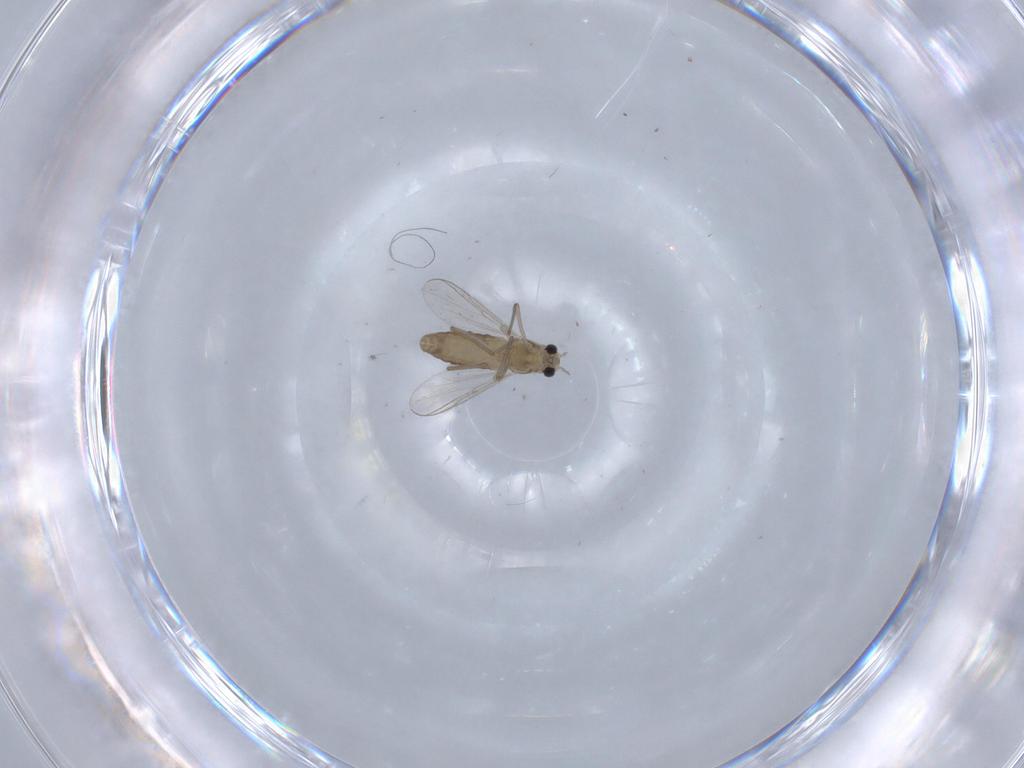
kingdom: Animalia
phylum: Arthropoda
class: Insecta
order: Diptera
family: Chironomidae
